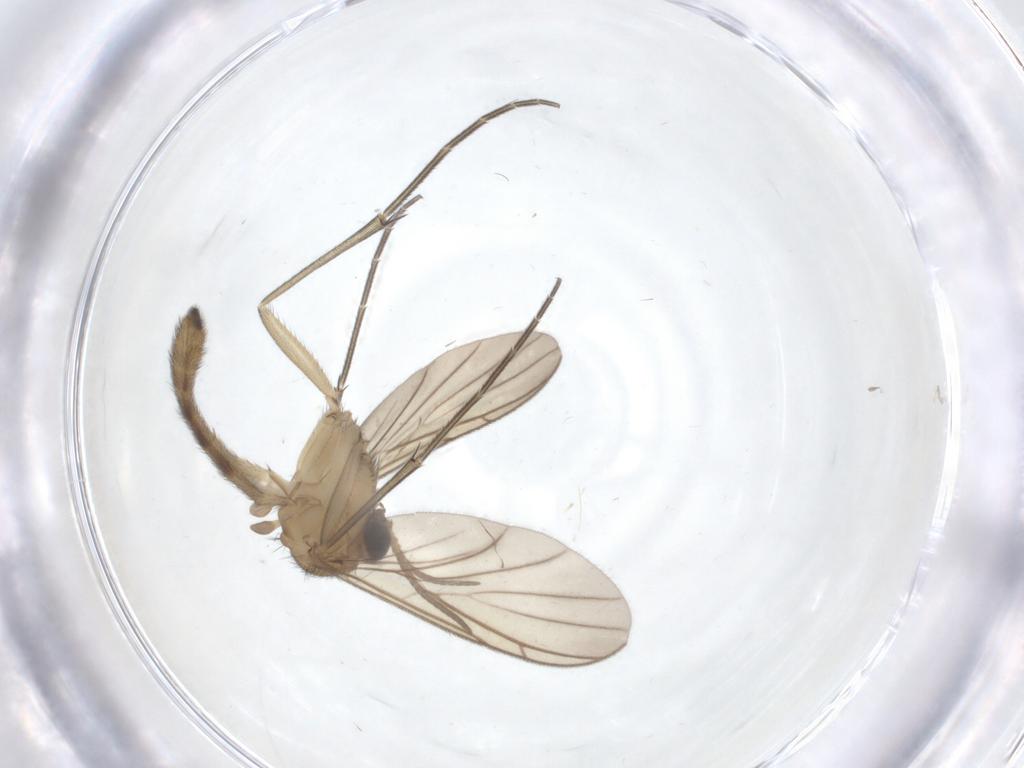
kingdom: Animalia
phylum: Arthropoda
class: Insecta
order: Diptera
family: Keroplatidae
